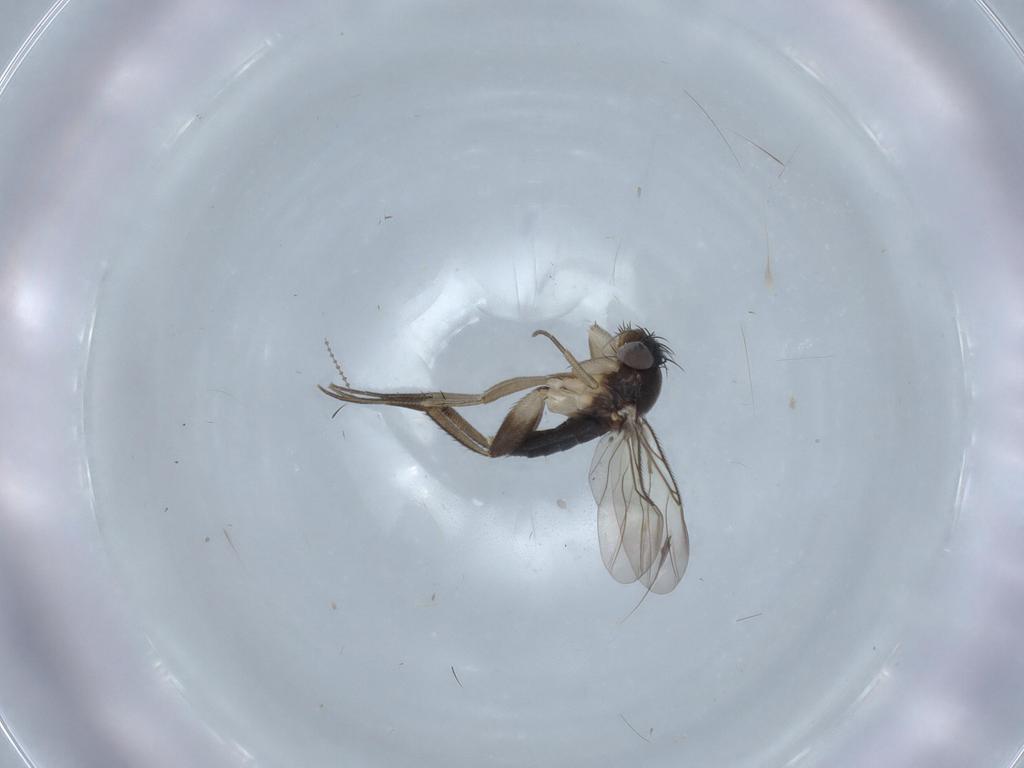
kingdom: Animalia
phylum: Arthropoda
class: Insecta
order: Diptera
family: Chironomidae
